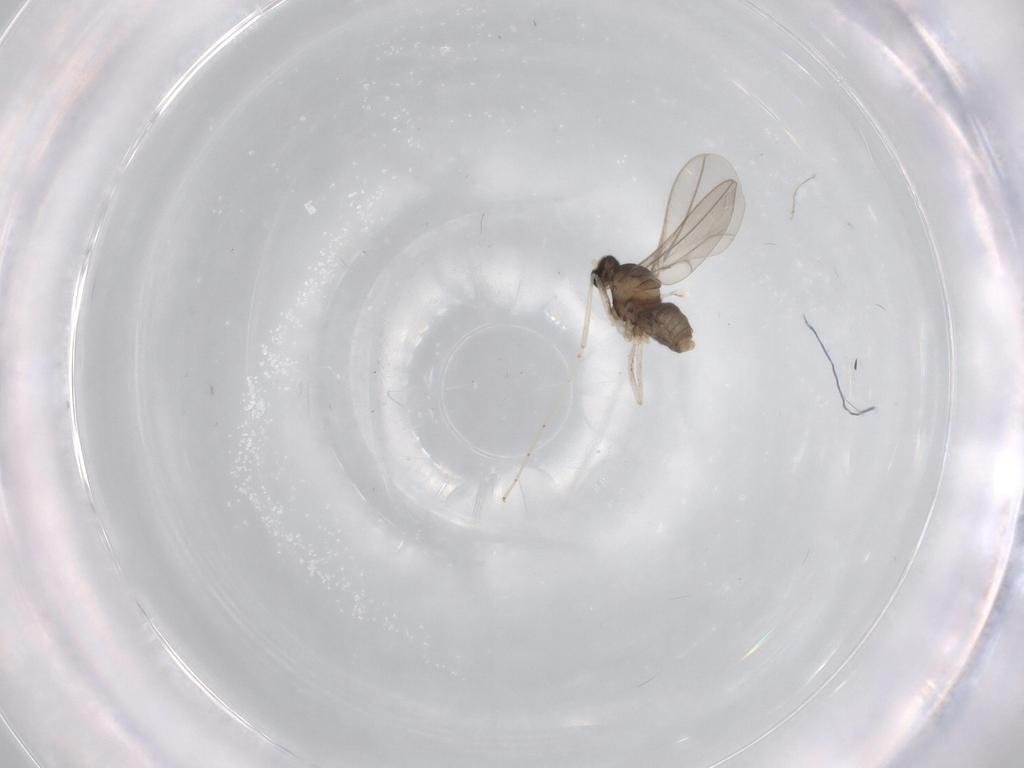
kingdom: Animalia
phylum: Arthropoda
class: Insecta
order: Diptera
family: Cecidomyiidae
